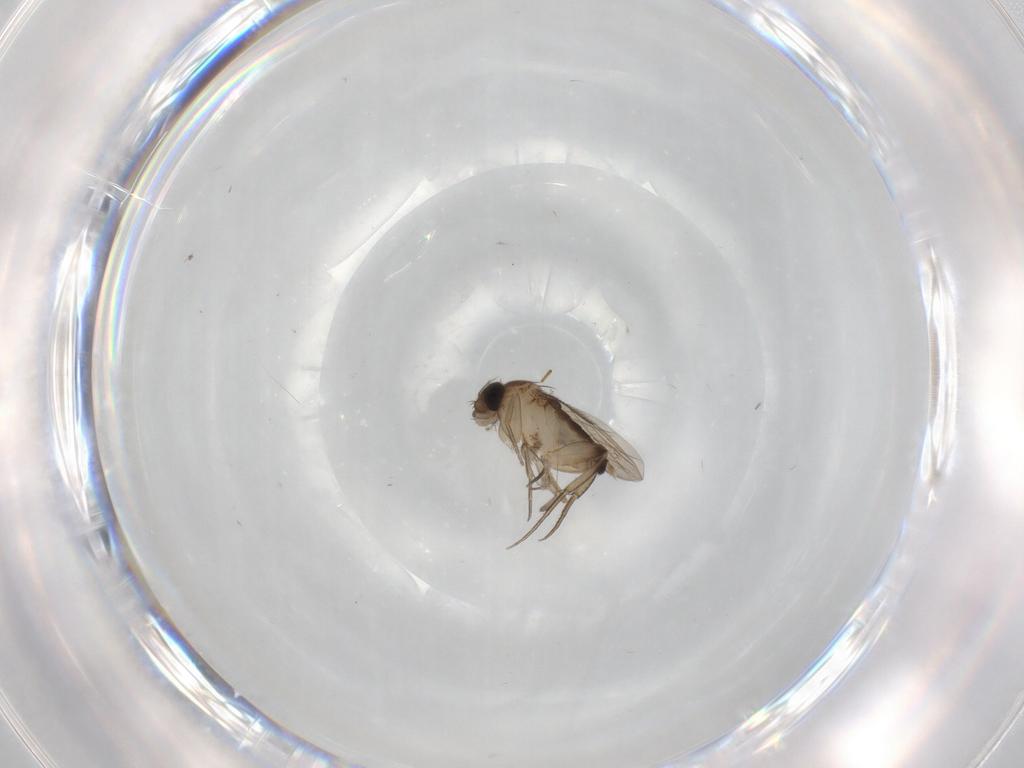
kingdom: Animalia
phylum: Arthropoda
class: Insecta
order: Diptera
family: Phoridae
